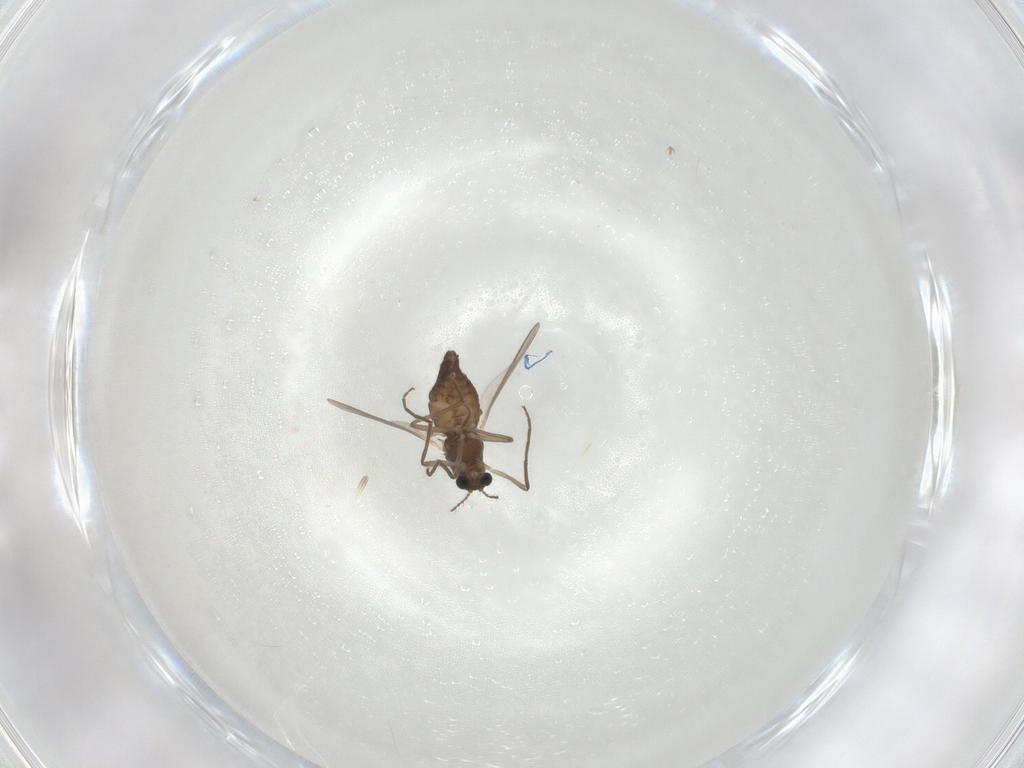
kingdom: Animalia
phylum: Arthropoda
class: Insecta
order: Diptera
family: Chironomidae
